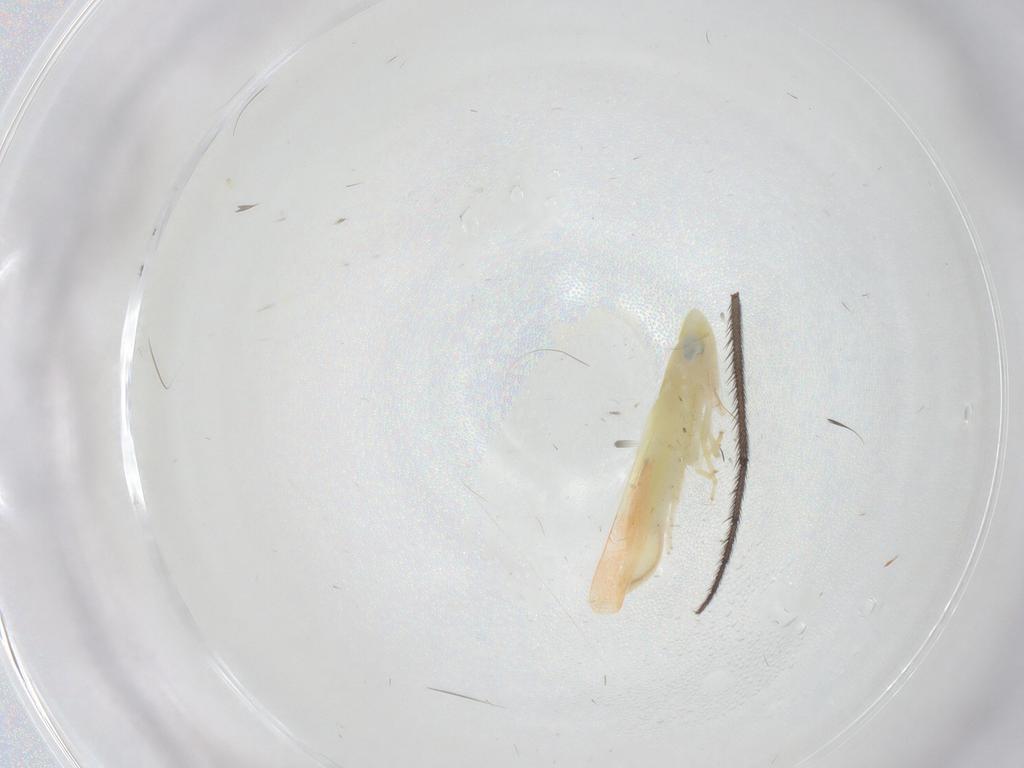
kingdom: Animalia
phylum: Arthropoda
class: Insecta
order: Hemiptera
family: Cicadellidae
